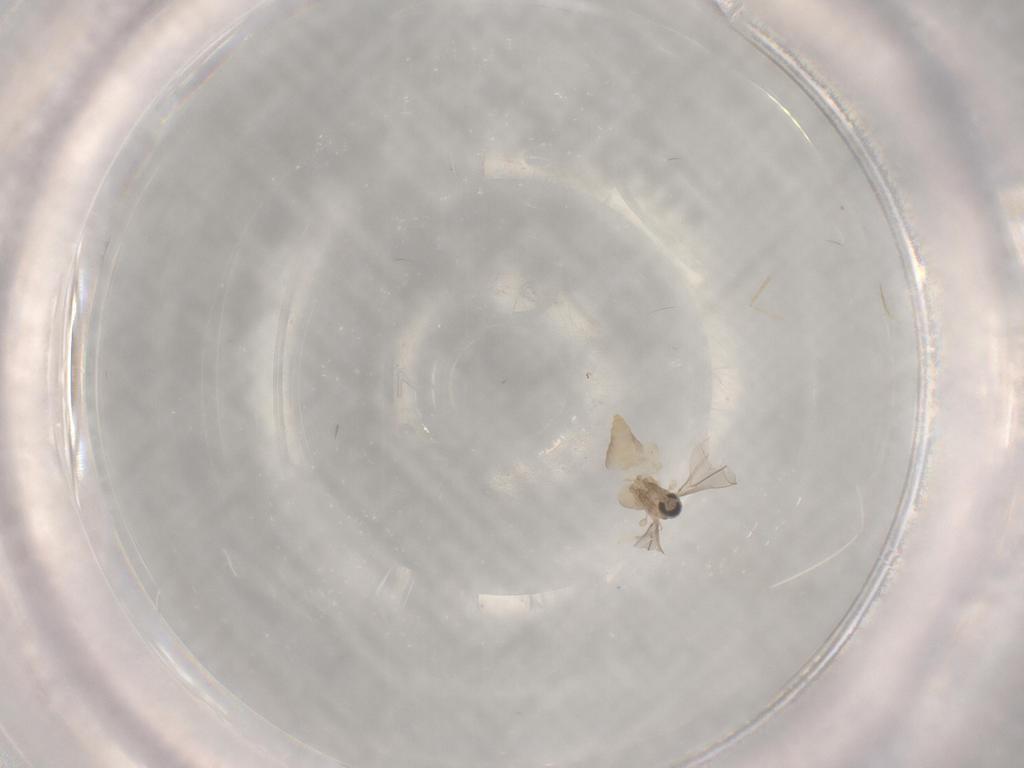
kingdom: Animalia
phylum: Arthropoda
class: Insecta
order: Diptera
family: Cecidomyiidae
